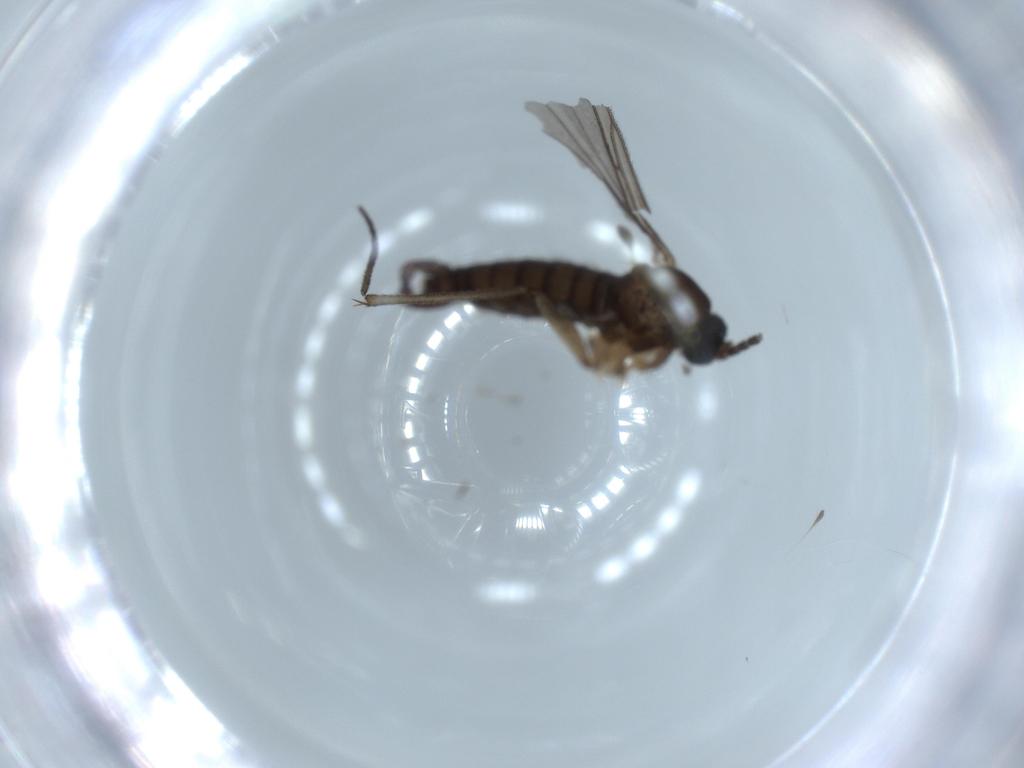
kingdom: Animalia
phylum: Arthropoda
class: Insecta
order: Diptera
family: Sciaridae
